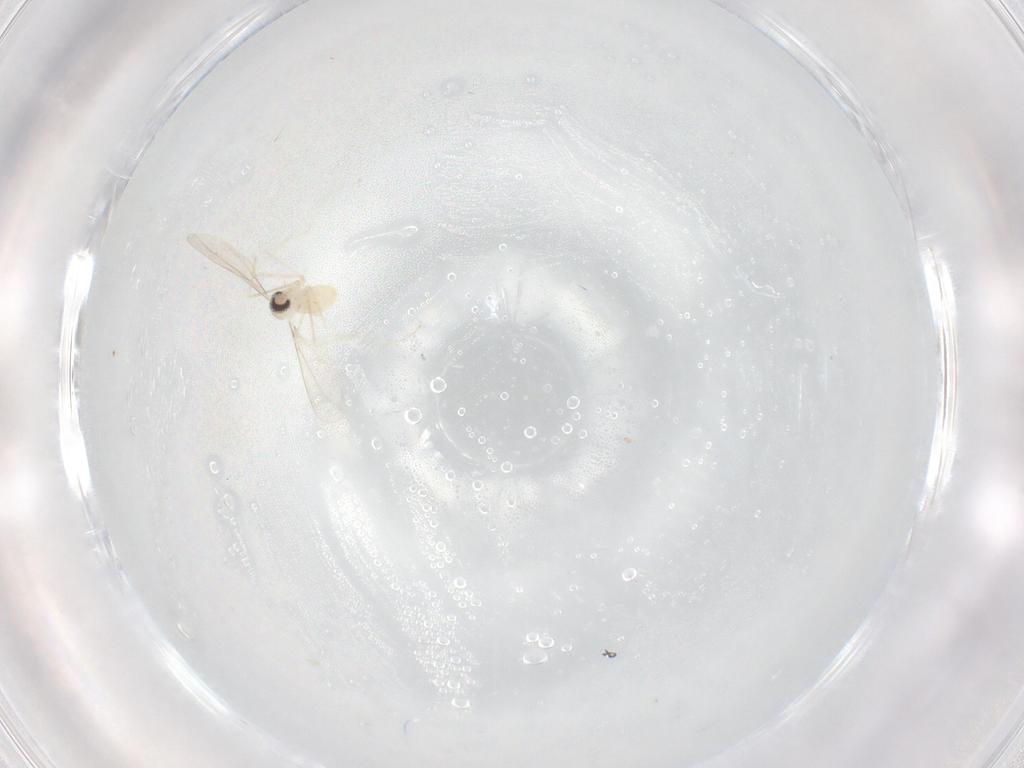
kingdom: Animalia
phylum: Arthropoda
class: Insecta
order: Diptera
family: Cecidomyiidae
